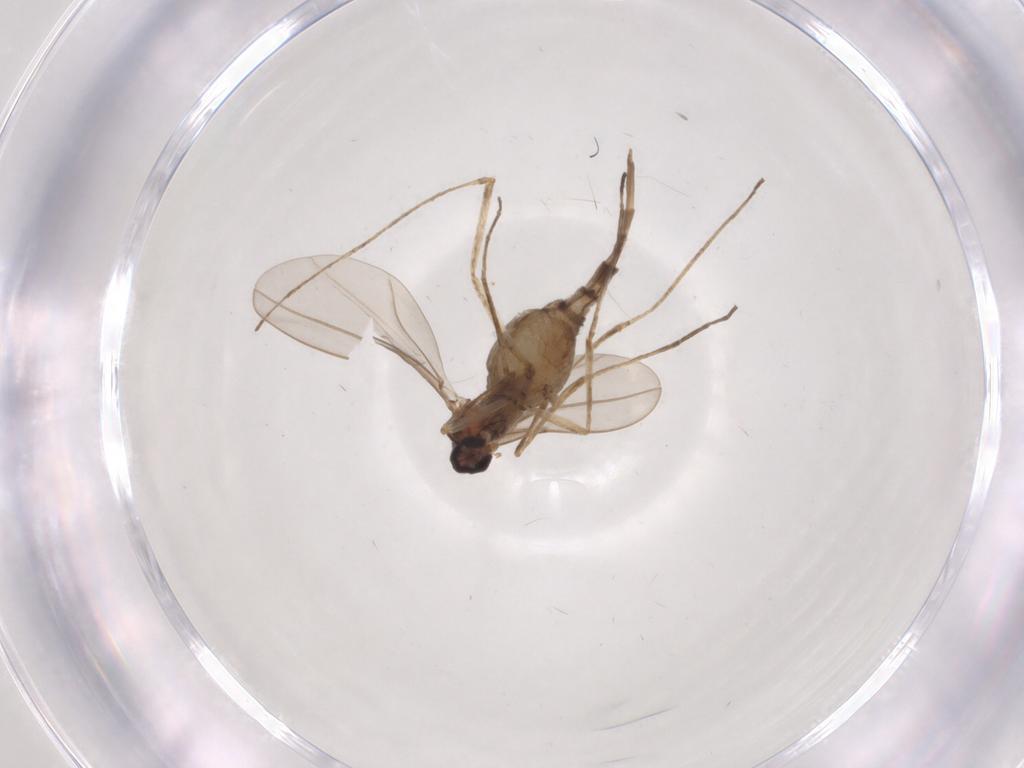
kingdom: Animalia
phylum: Arthropoda
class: Insecta
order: Diptera
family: Cecidomyiidae
